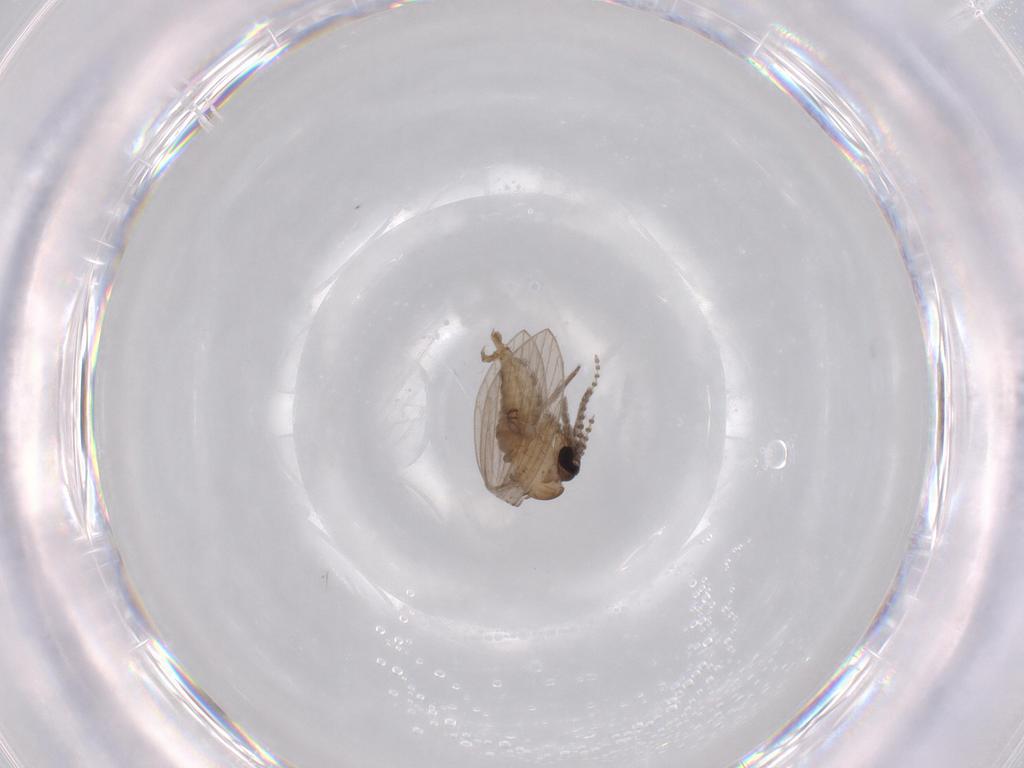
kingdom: Animalia
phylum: Arthropoda
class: Insecta
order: Diptera
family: Psychodidae
